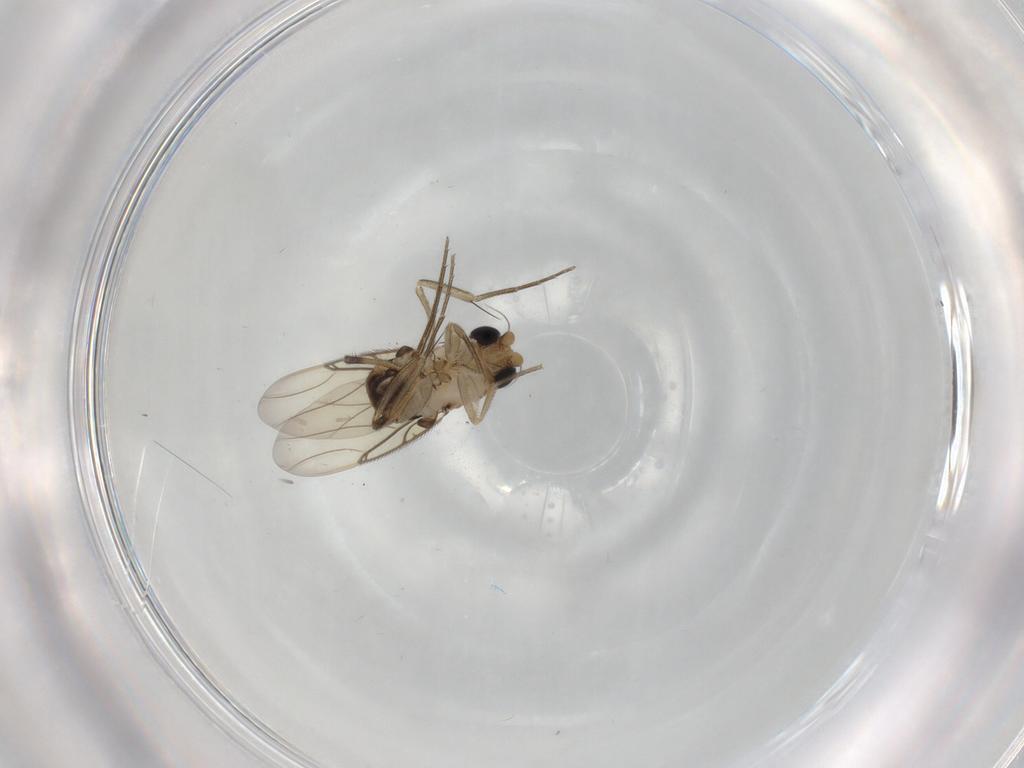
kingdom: Animalia
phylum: Arthropoda
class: Insecta
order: Diptera
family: Phoridae
